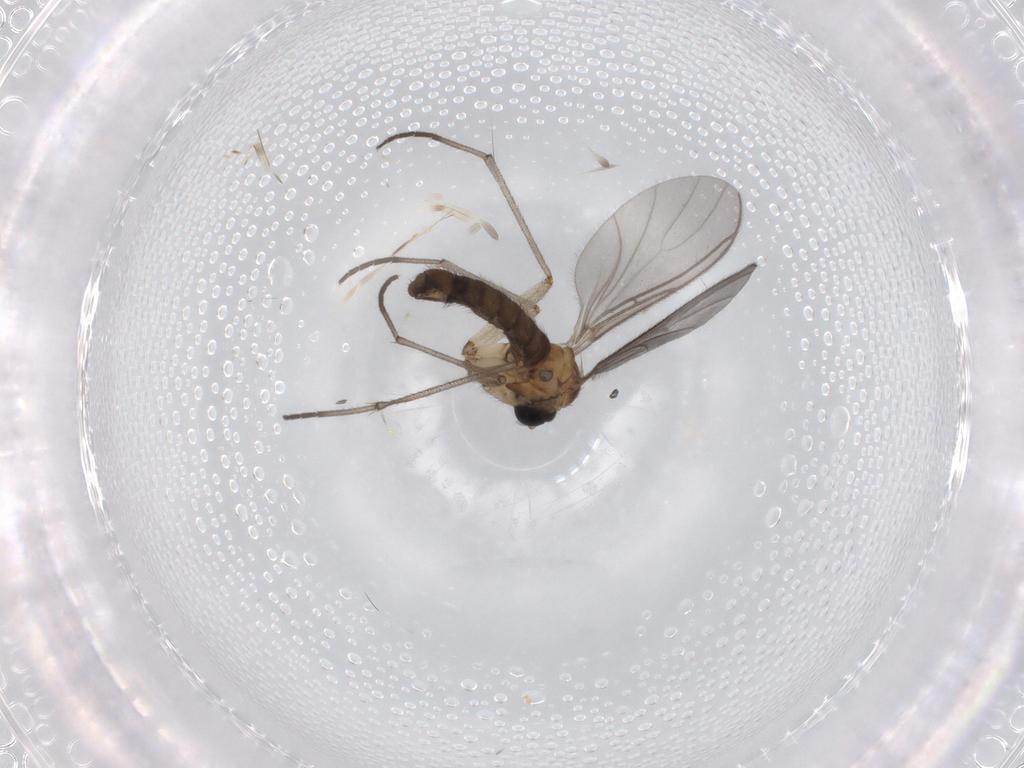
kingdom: Animalia
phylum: Arthropoda
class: Insecta
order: Diptera
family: Sciaridae
